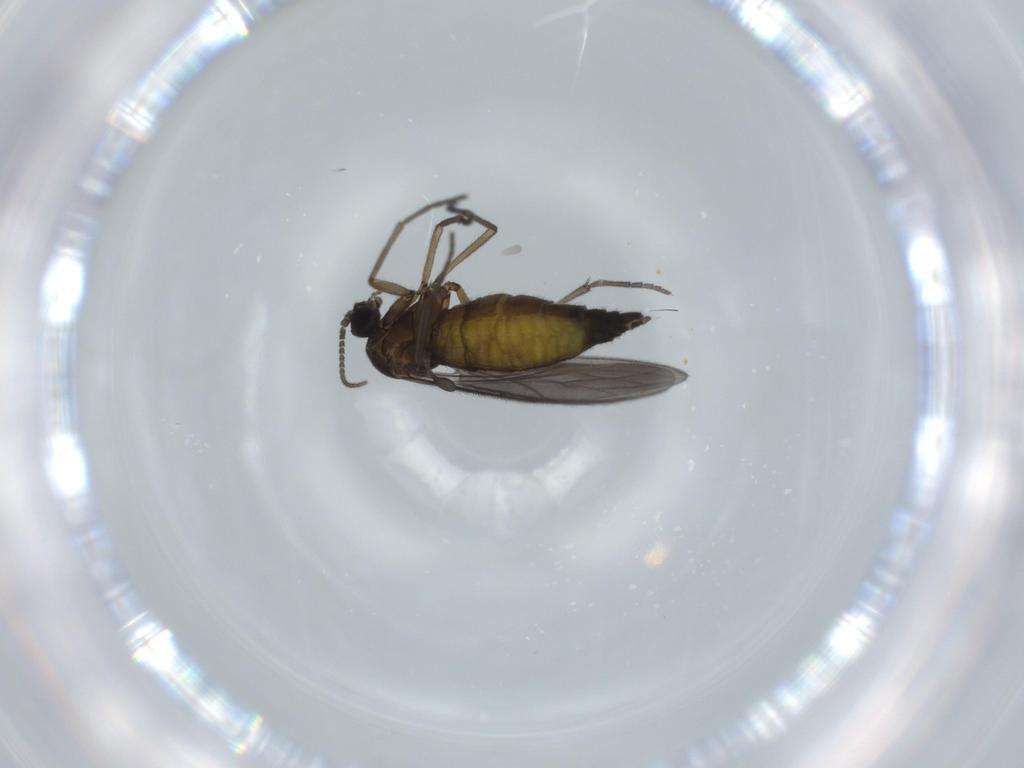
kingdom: Animalia
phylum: Arthropoda
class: Insecta
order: Diptera
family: Sciaridae
